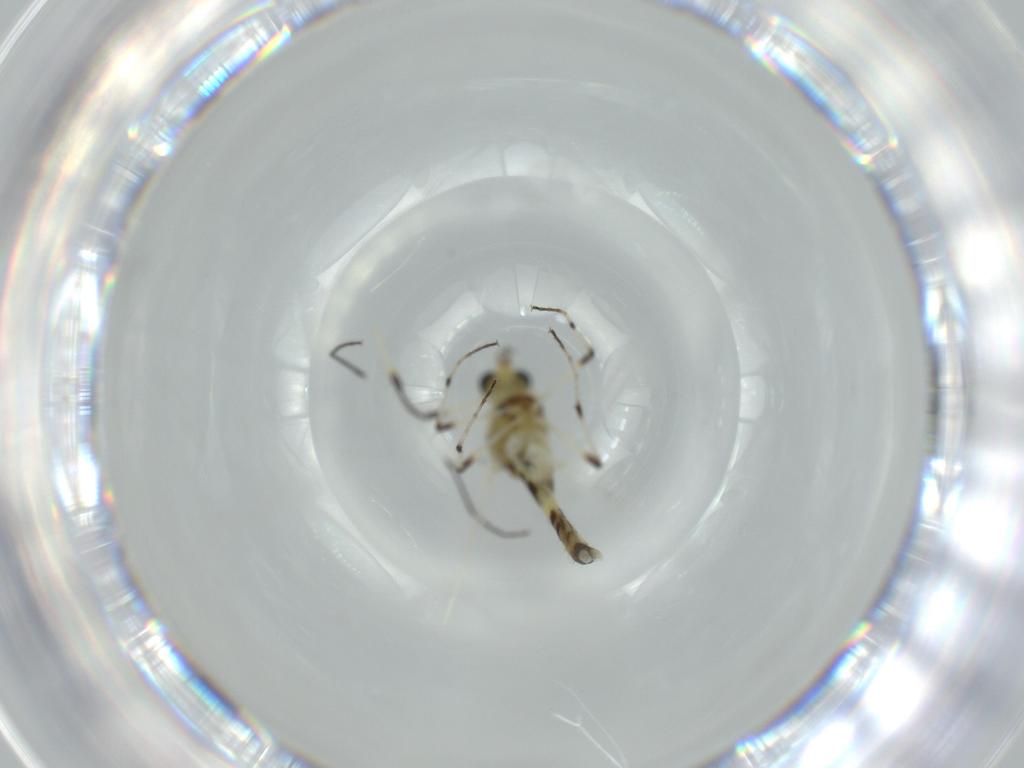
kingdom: Animalia
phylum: Arthropoda
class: Insecta
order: Diptera
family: Chironomidae
